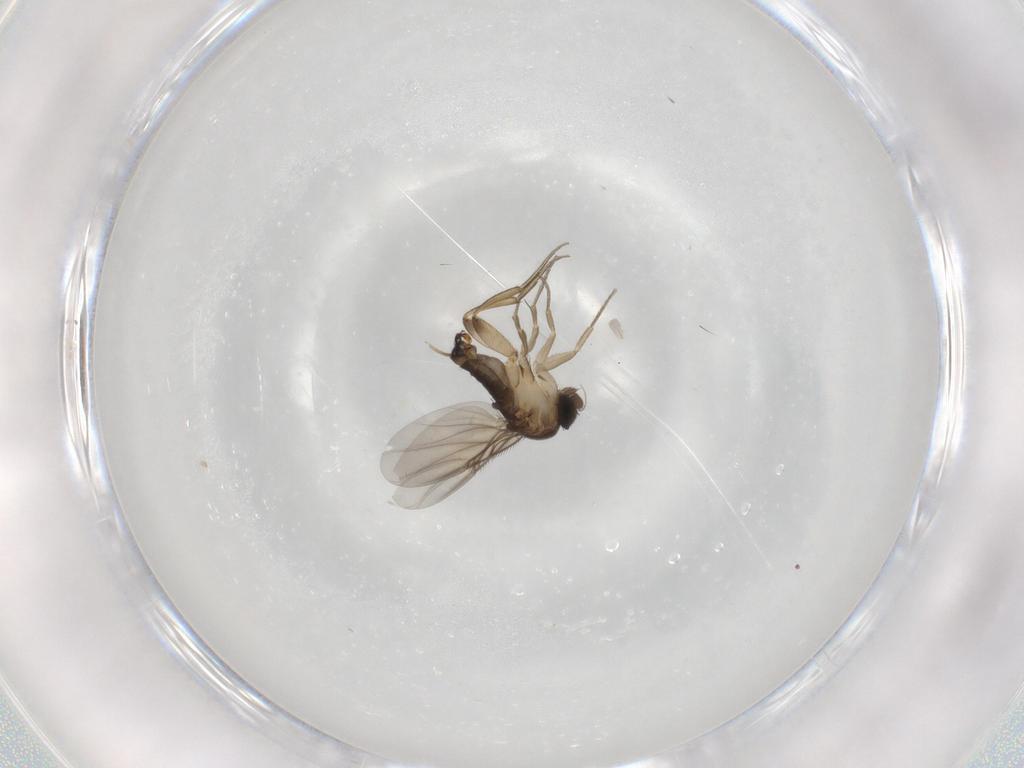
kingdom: Animalia
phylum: Arthropoda
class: Insecta
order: Diptera
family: Phoridae
